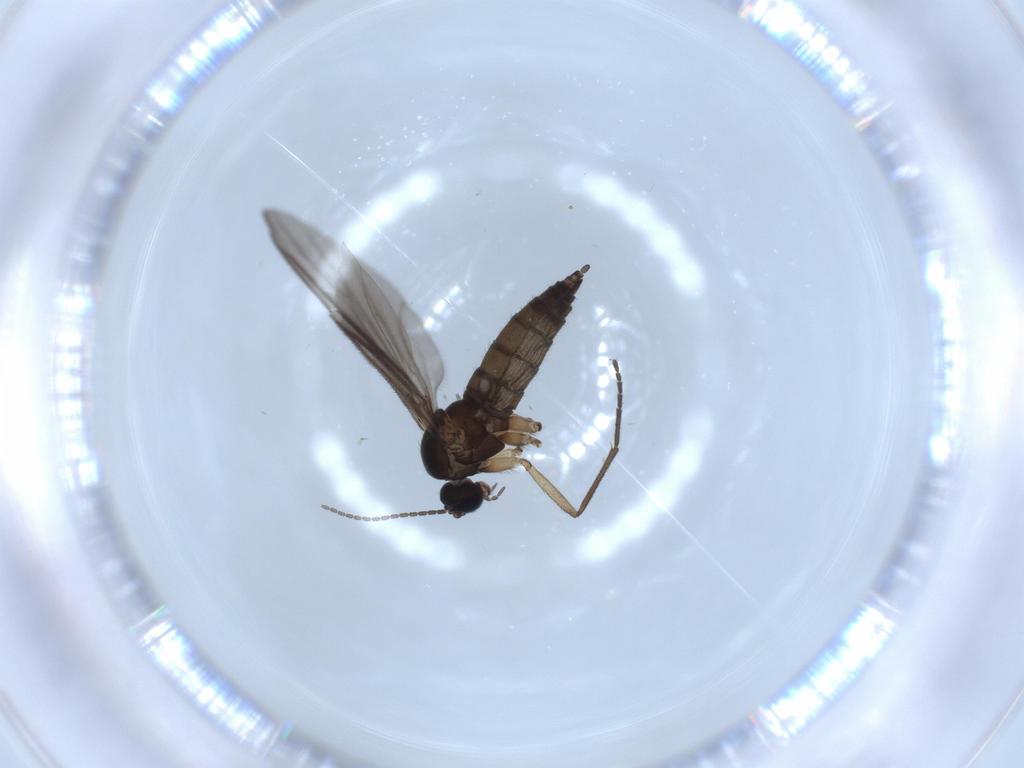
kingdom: Animalia
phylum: Arthropoda
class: Insecta
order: Diptera
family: Sciaridae
